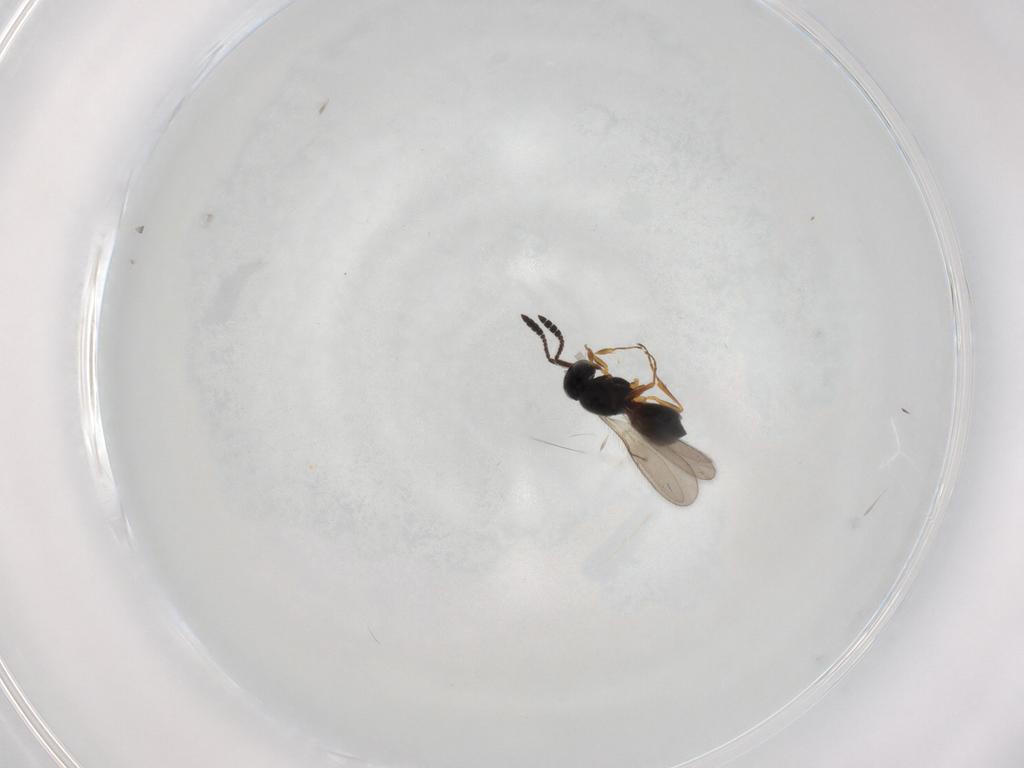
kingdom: Animalia
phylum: Arthropoda
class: Insecta
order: Hymenoptera
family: Scelionidae
